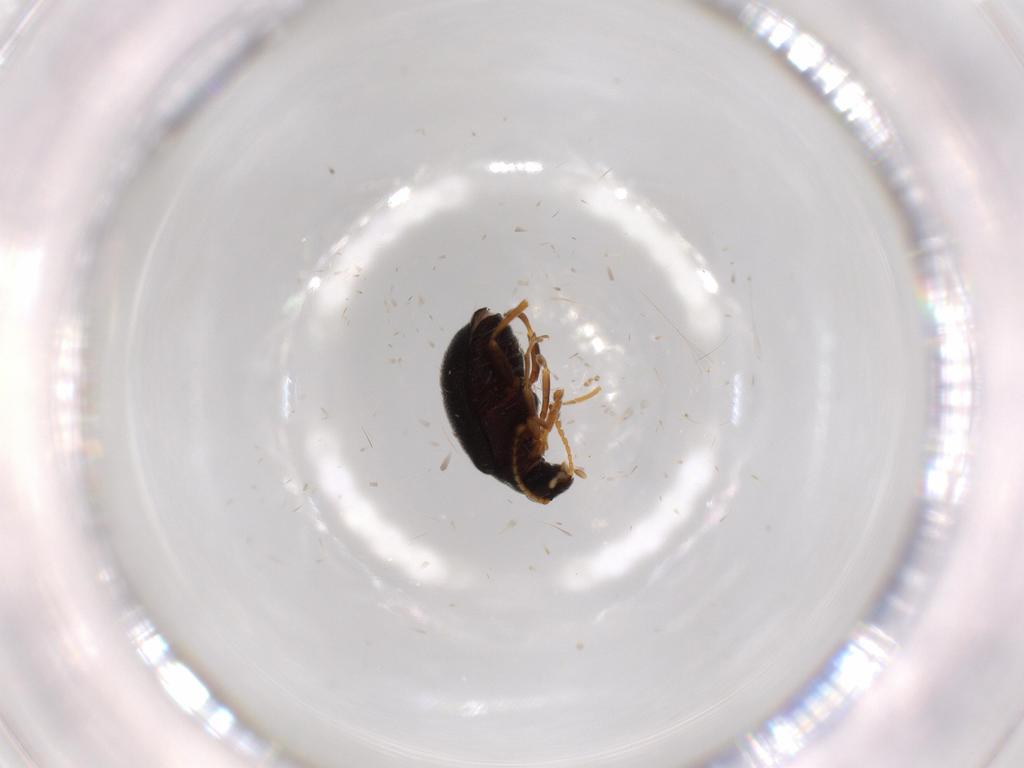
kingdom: Animalia
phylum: Arthropoda
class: Insecta
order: Coleoptera
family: Aderidae
